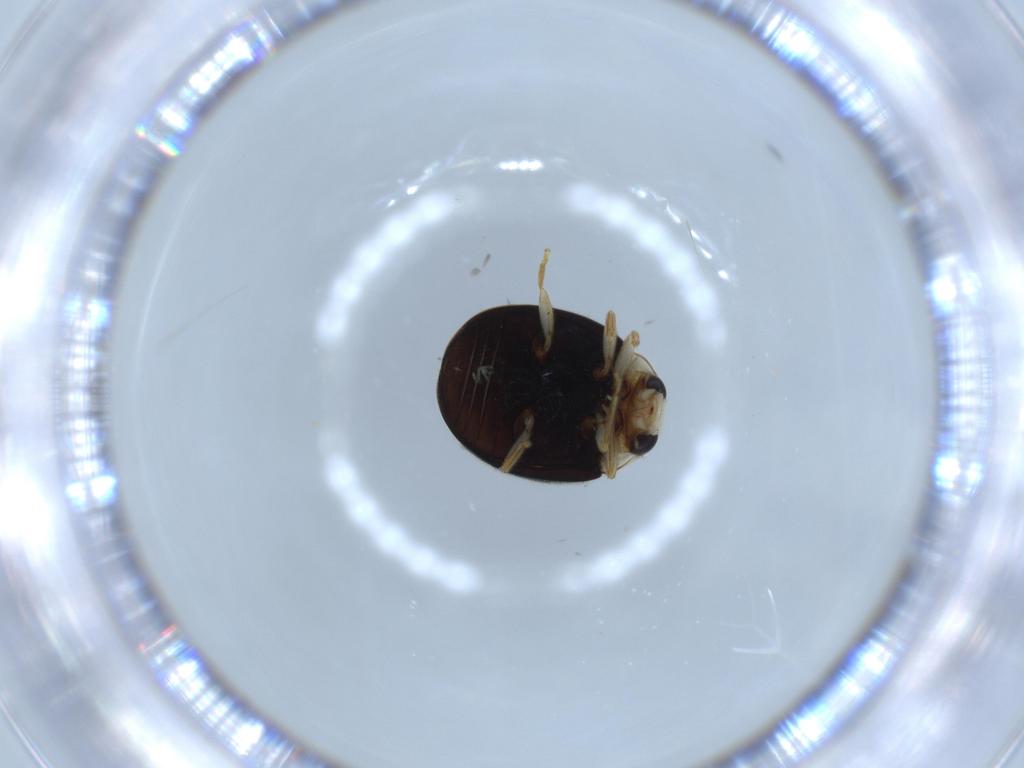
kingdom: Animalia
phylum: Arthropoda
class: Insecta
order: Coleoptera
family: Coccinellidae
